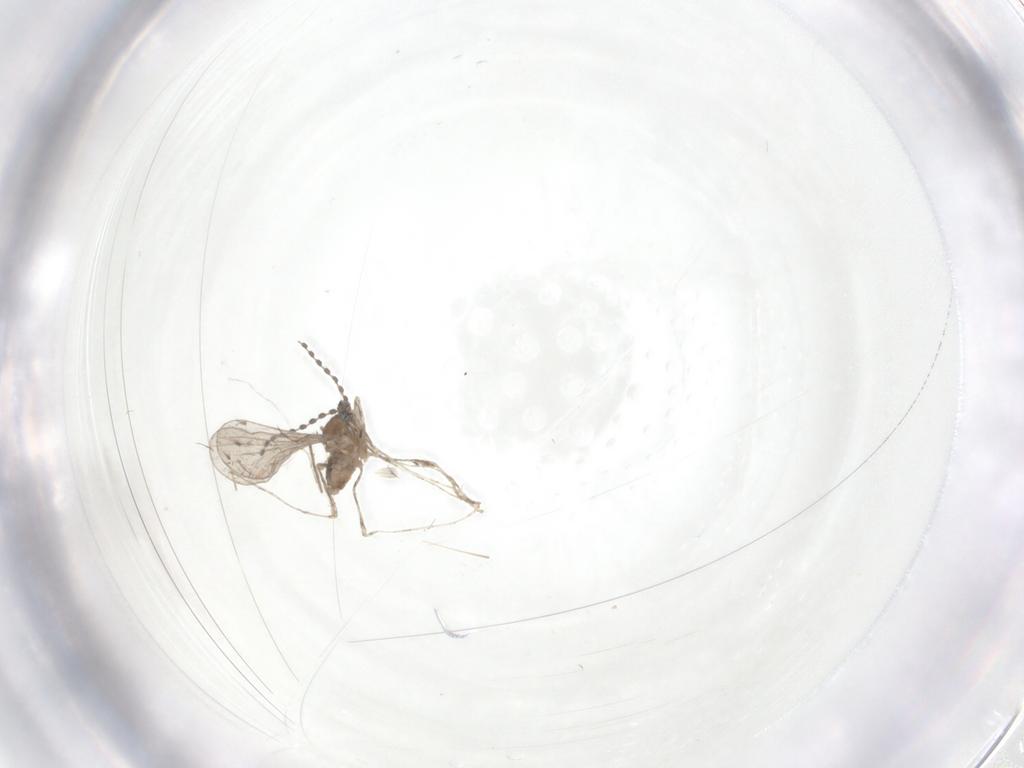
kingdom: Animalia
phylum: Arthropoda
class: Insecta
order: Diptera
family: Cecidomyiidae
